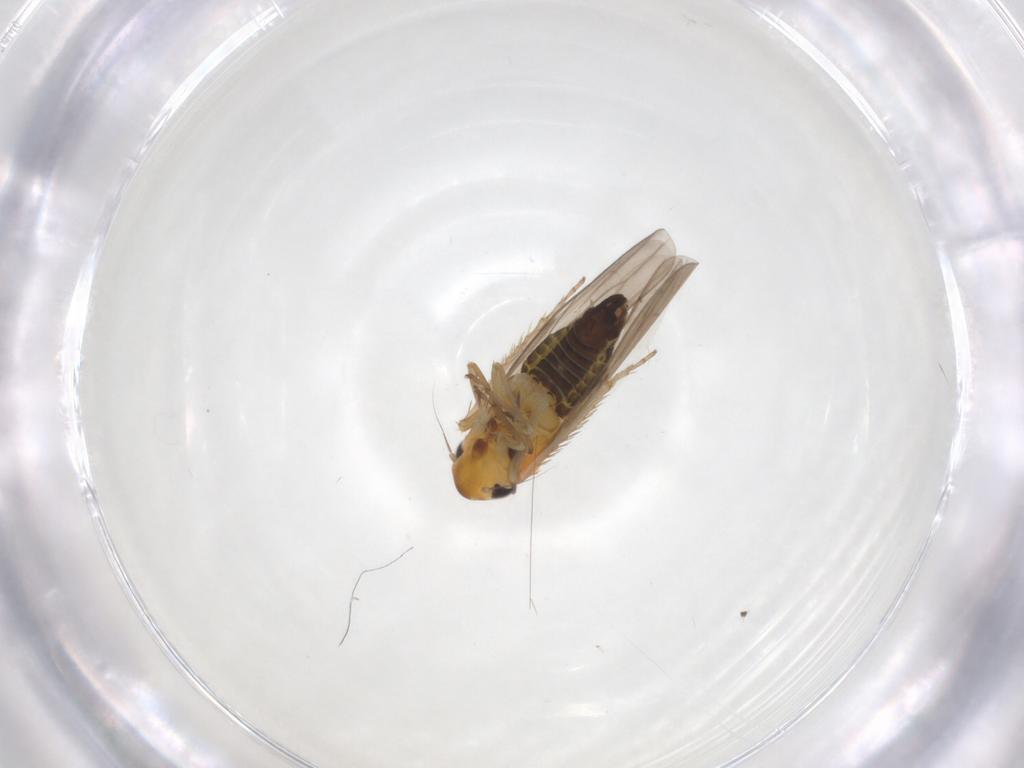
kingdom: Animalia
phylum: Arthropoda
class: Insecta
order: Hemiptera
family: Cicadellidae
